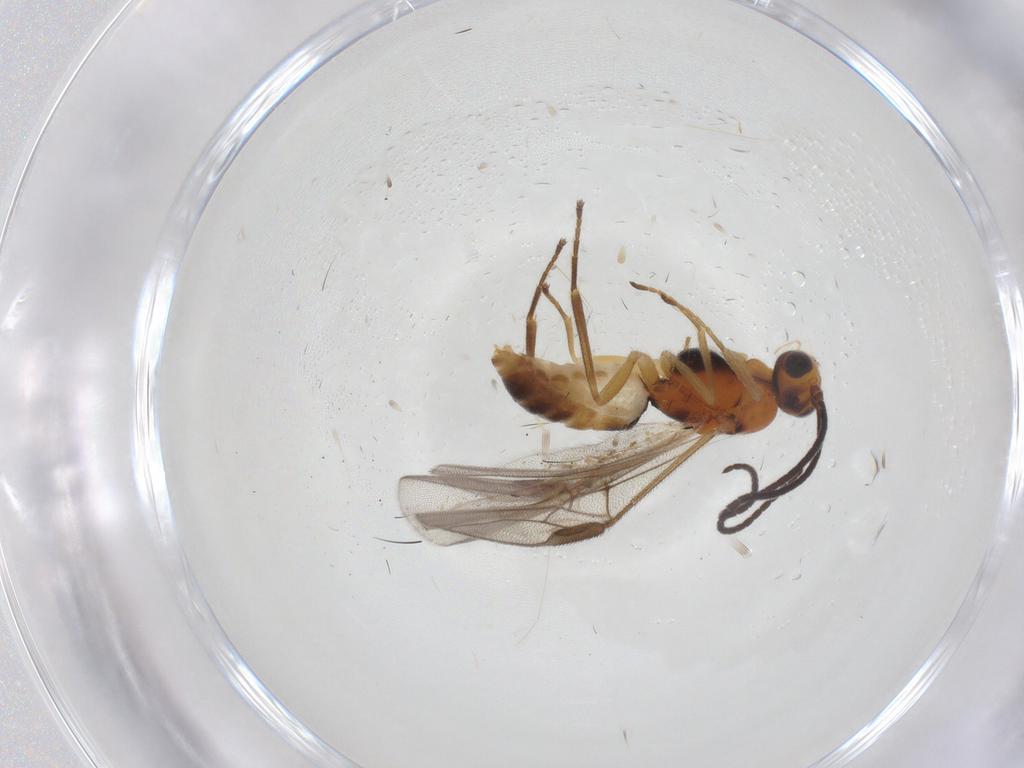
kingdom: Animalia
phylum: Arthropoda
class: Insecta
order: Hymenoptera
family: Braconidae
